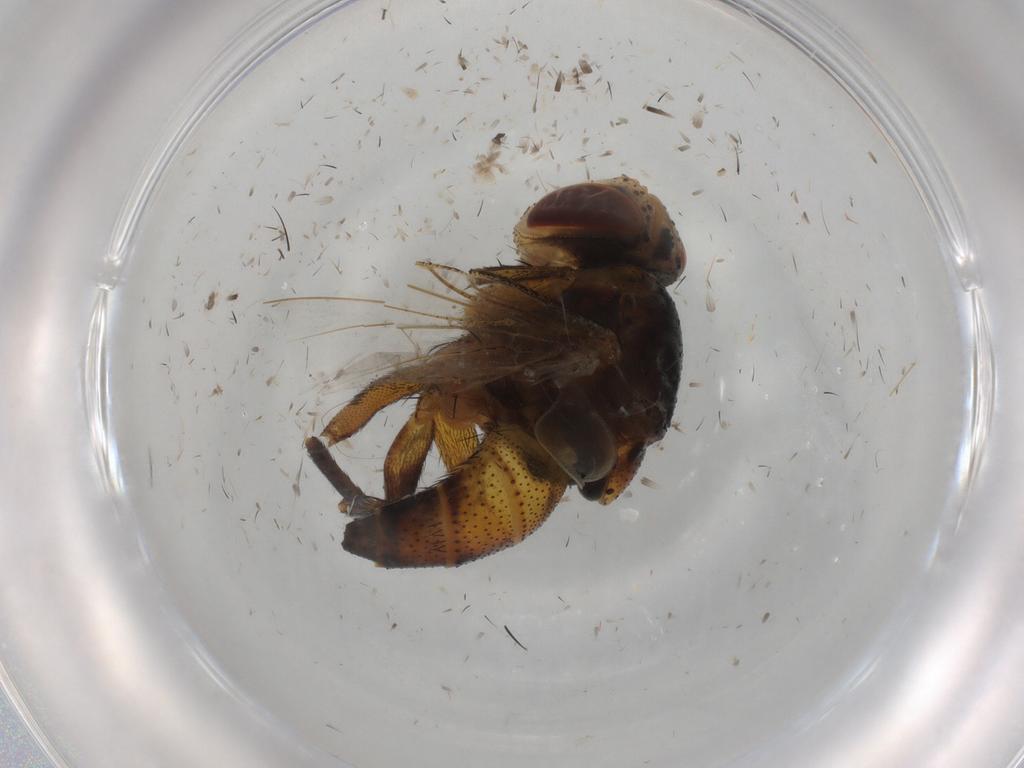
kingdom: Animalia
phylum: Arthropoda
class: Insecta
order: Diptera
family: Glossinidae
